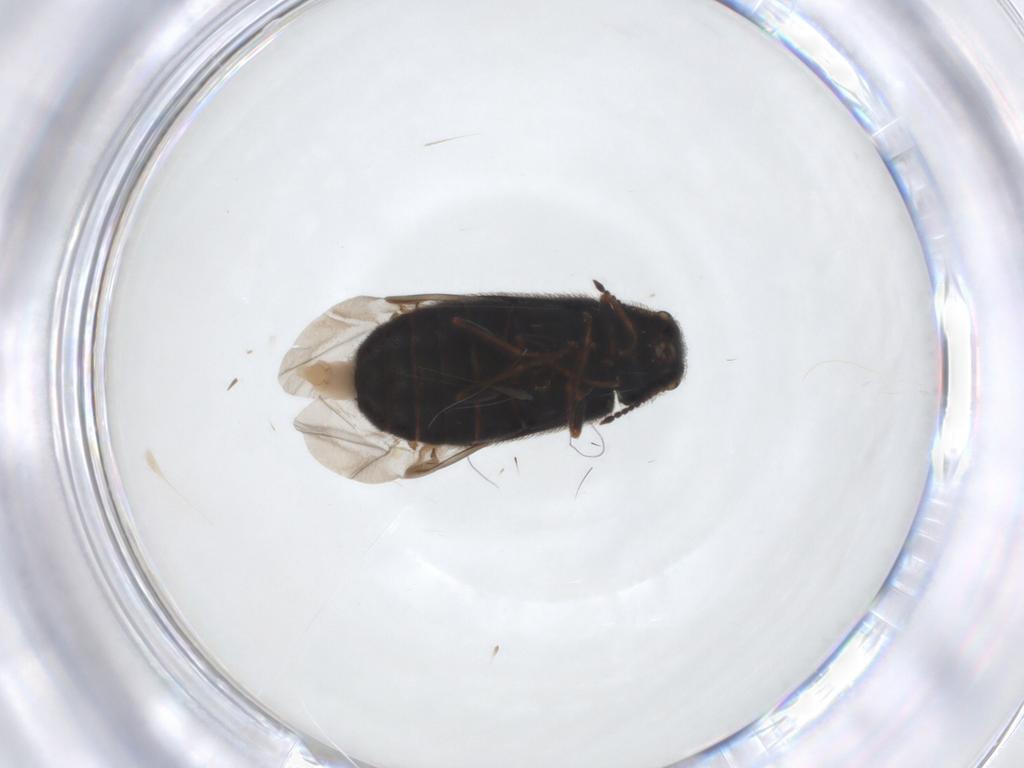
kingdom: Animalia
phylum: Arthropoda
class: Insecta
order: Coleoptera
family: Melyridae
